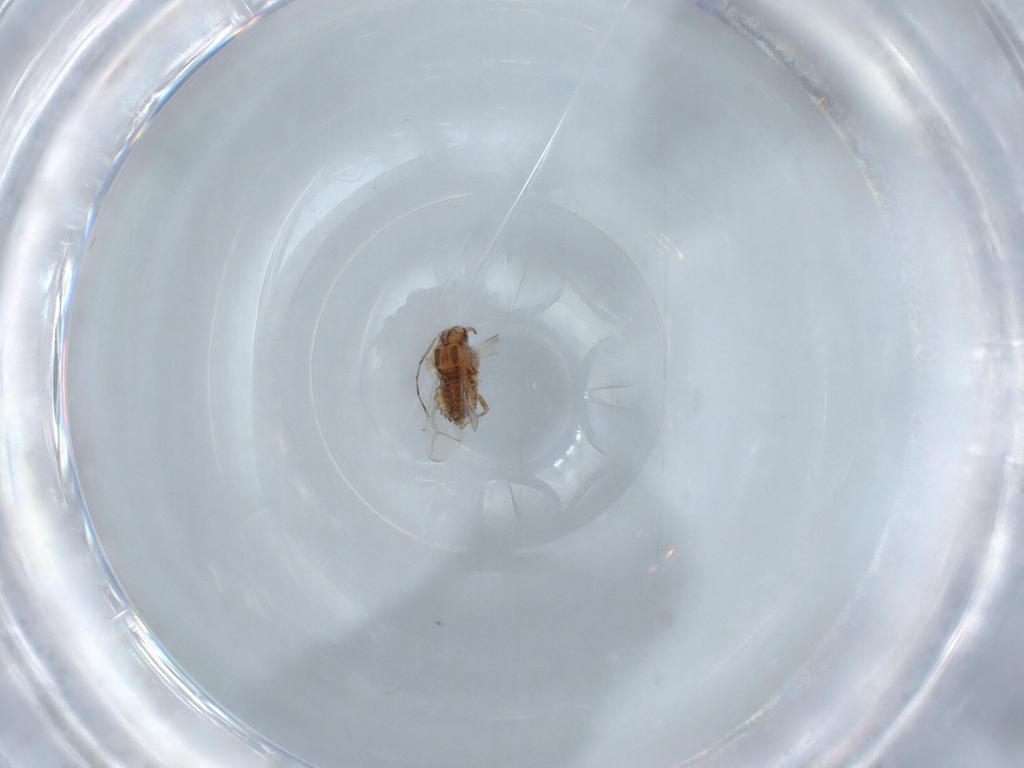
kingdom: Animalia
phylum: Arthropoda
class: Insecta
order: Hemiptera
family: Aphididae
